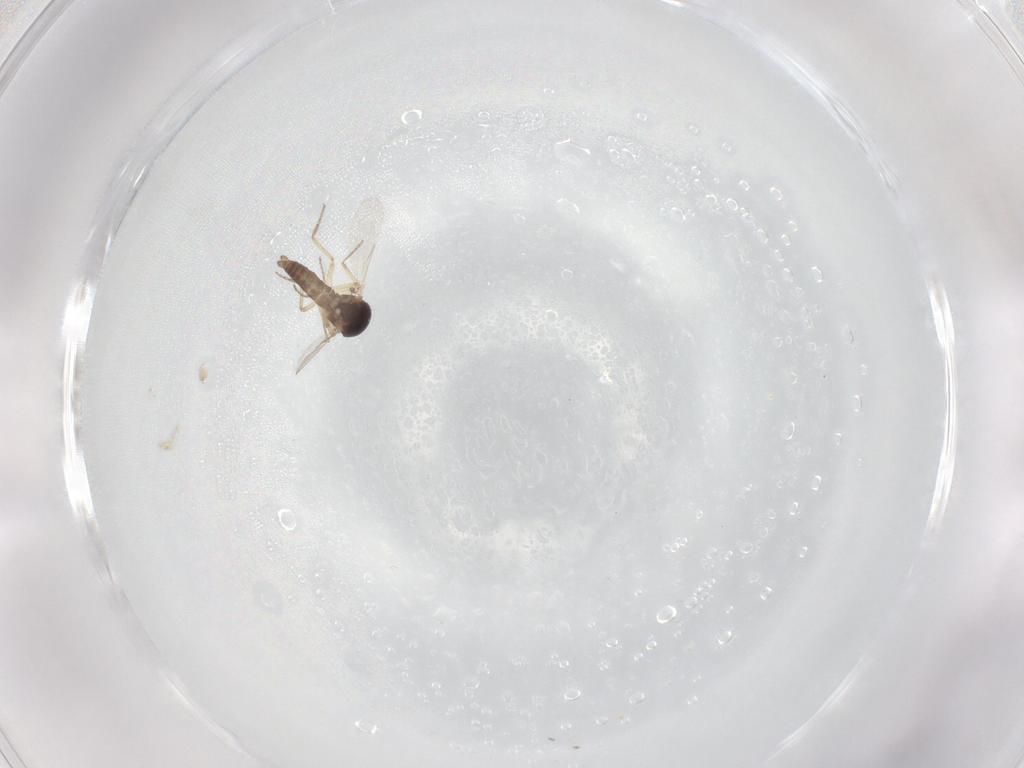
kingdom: Animalia
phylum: Arthropoda
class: Insecta
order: Diptera
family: Ceratopogonidae
